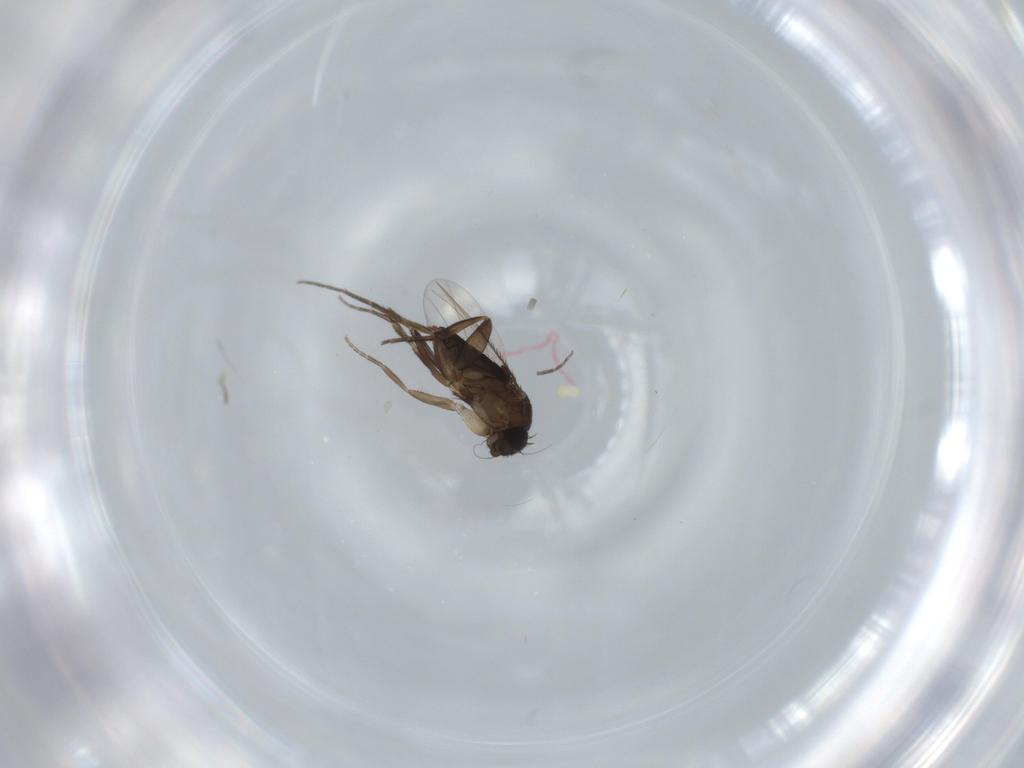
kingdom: Animalia
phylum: Arthropoda
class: Insecta
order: Diptera
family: Phoridae
